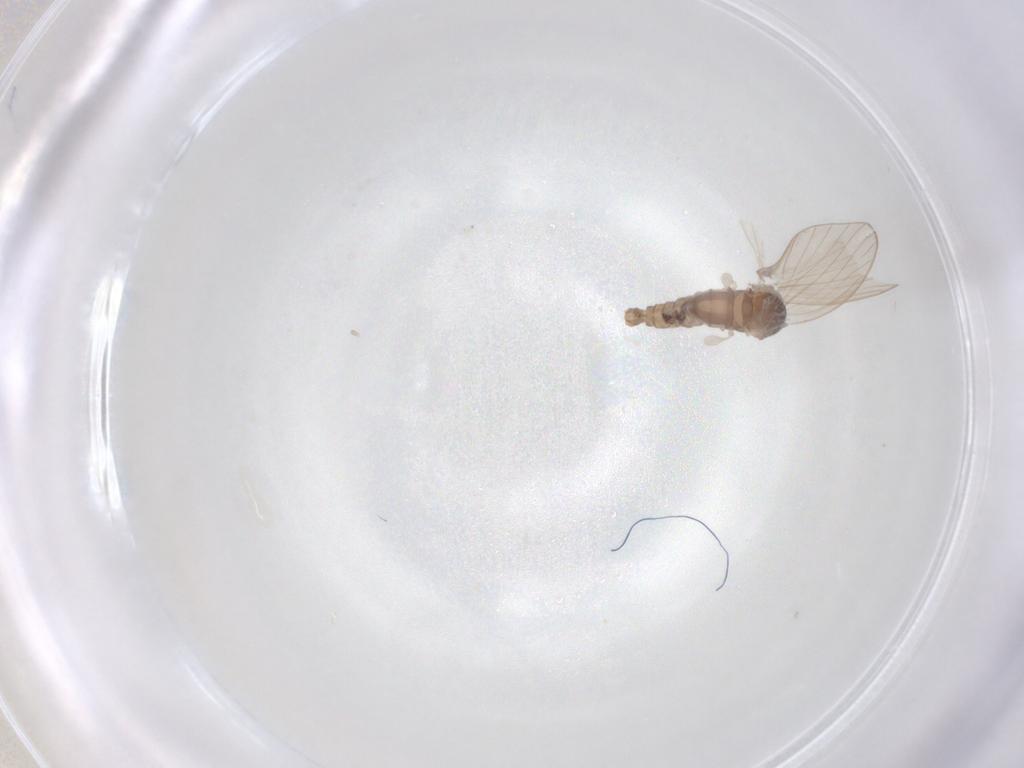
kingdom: Animalia
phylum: Arthropoda
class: Insecta
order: Diptera
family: Psychodidae
